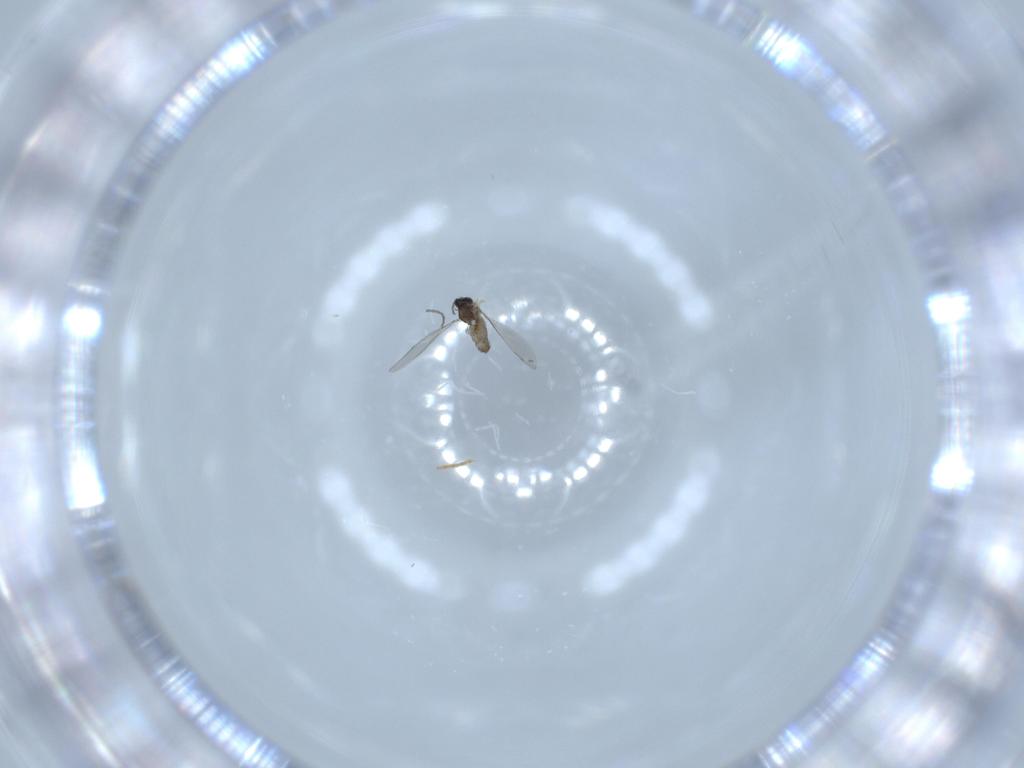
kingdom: Animalia
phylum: Arthropoda
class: Insecta
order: Diptera
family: Cecidomyiidae
